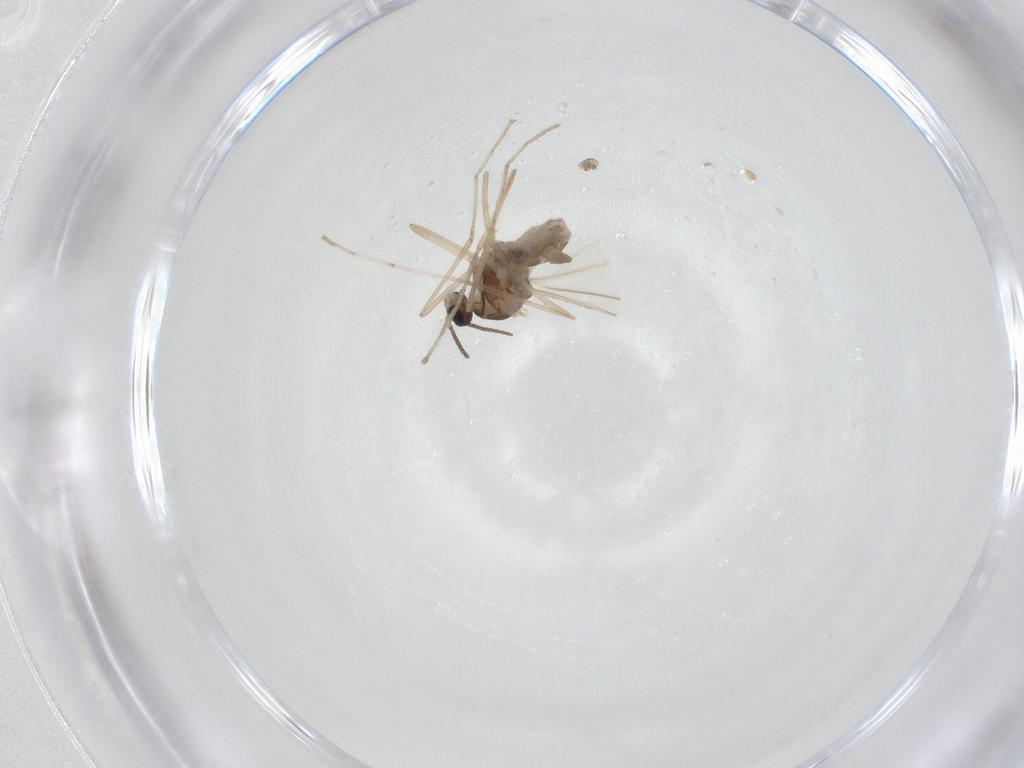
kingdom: Animalia
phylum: Arthropoda
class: Insecta
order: Diptera
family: Cecidomyiidae
